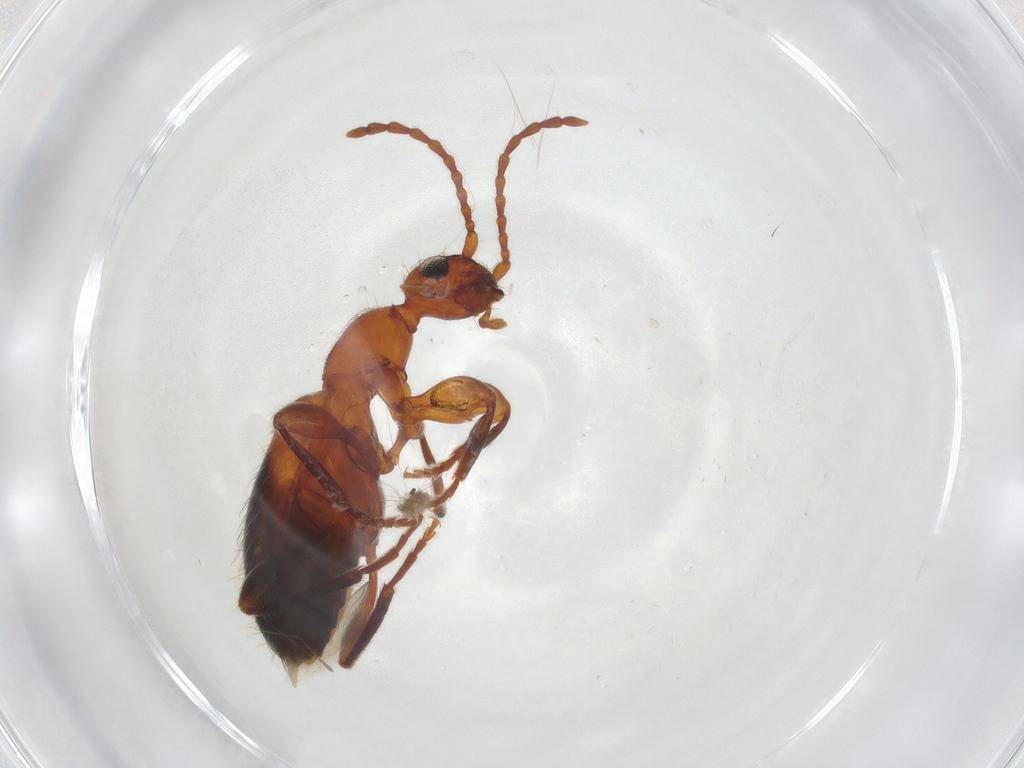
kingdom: Animalia
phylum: Arthropoda
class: Insecta
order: Coleoptera
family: Anthicidae
